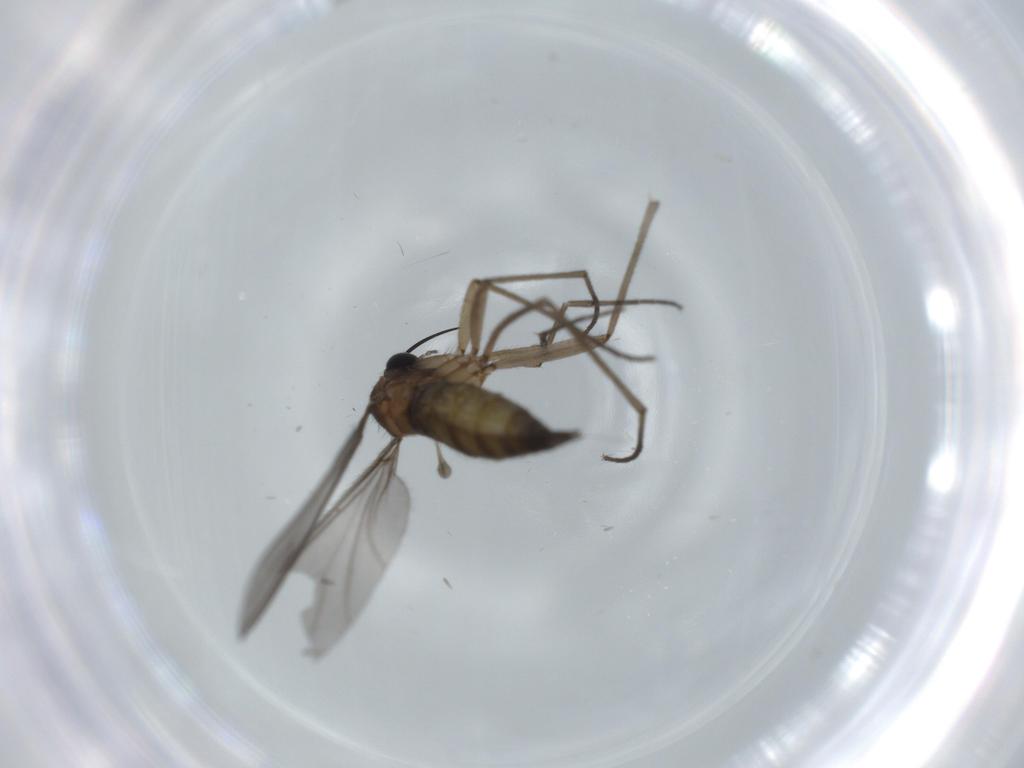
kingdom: Animalia
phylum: Arthropoda
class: Insecta
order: Diptera
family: Sciaridae
